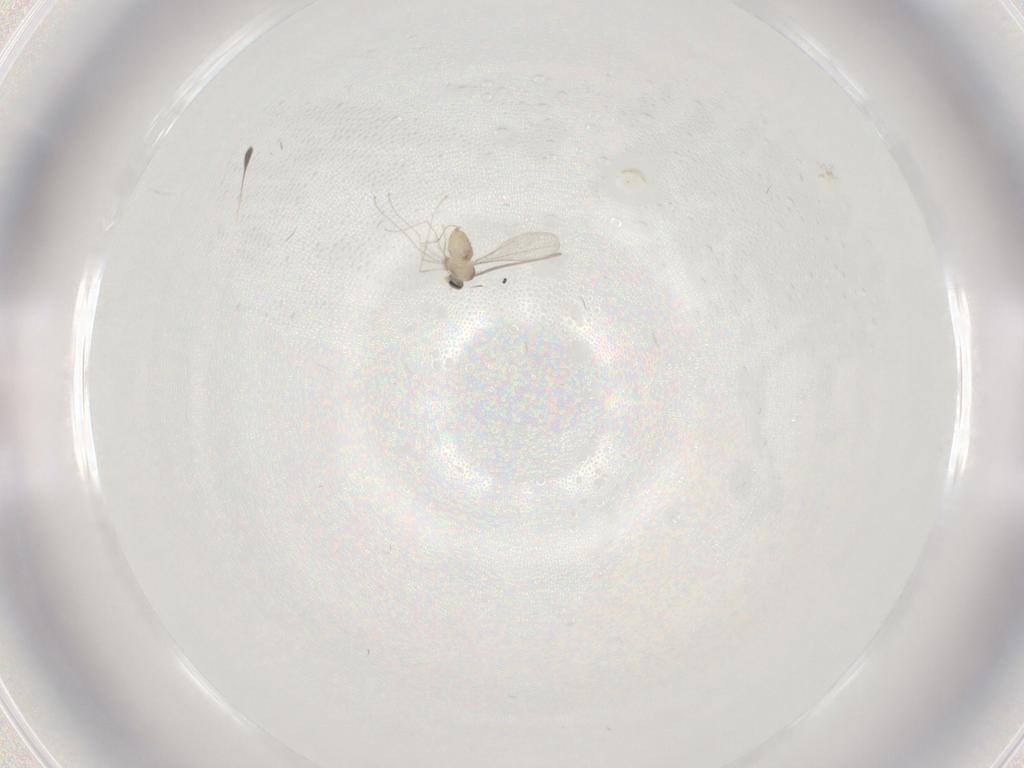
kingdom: Animalia
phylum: Arthropoda
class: Insecta
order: Diptera
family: Cecidomyiidae
